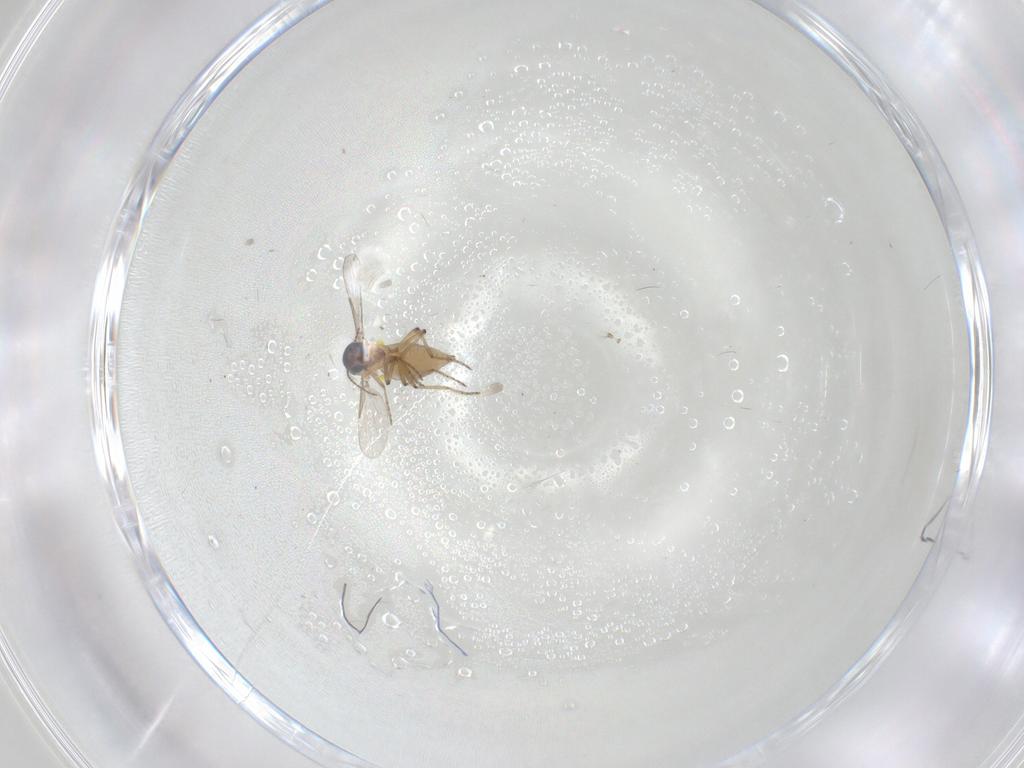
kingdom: Animalia
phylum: Arthropoda
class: Insecta
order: Diptera
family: Cecidomyiidae
